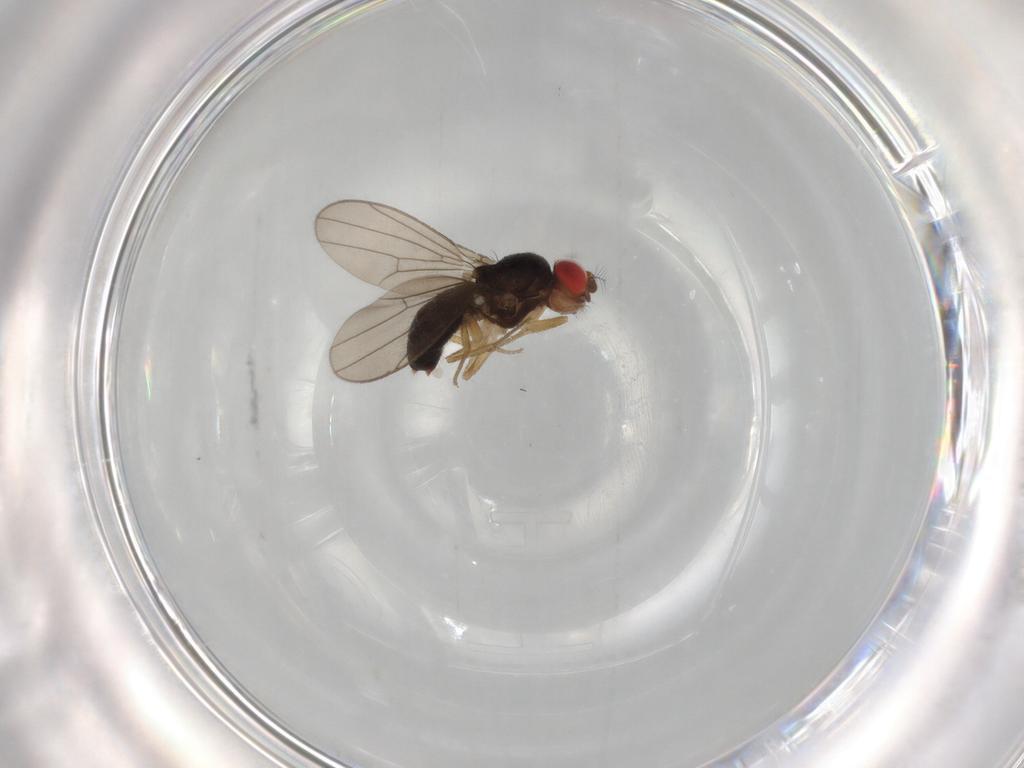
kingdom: Animalia
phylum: Arthropoda
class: Insecta
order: Diptera
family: Drosophilidae
